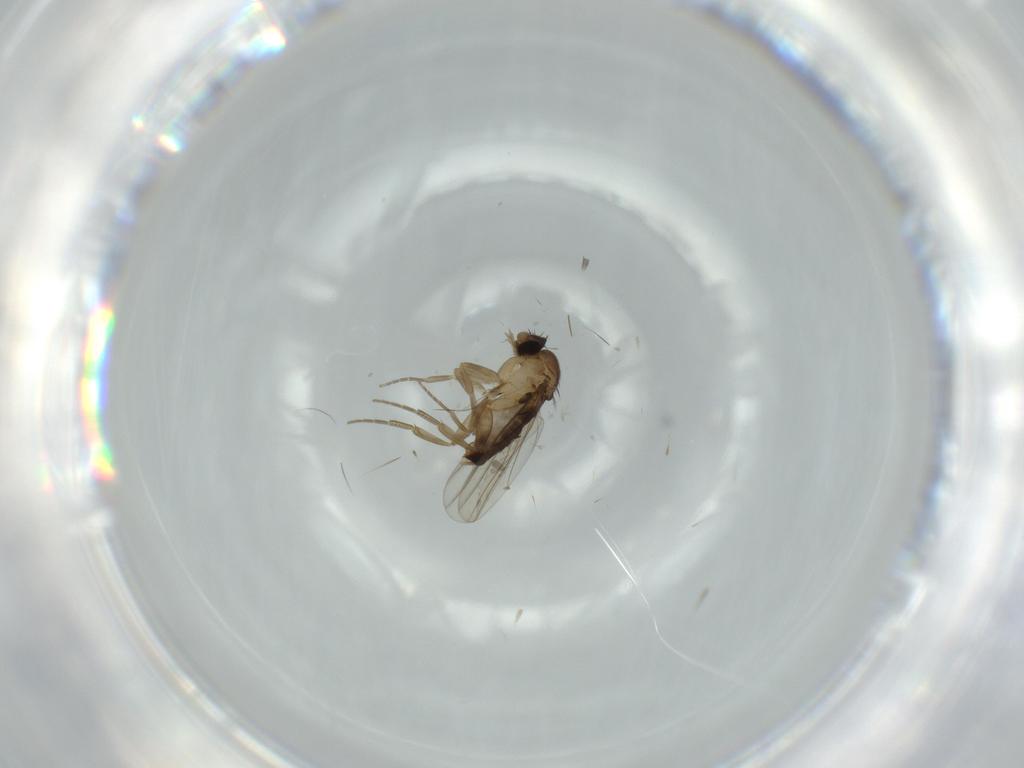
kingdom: Animalia
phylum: Arthropoda
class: Insecta
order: Diptera
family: Phoridae
